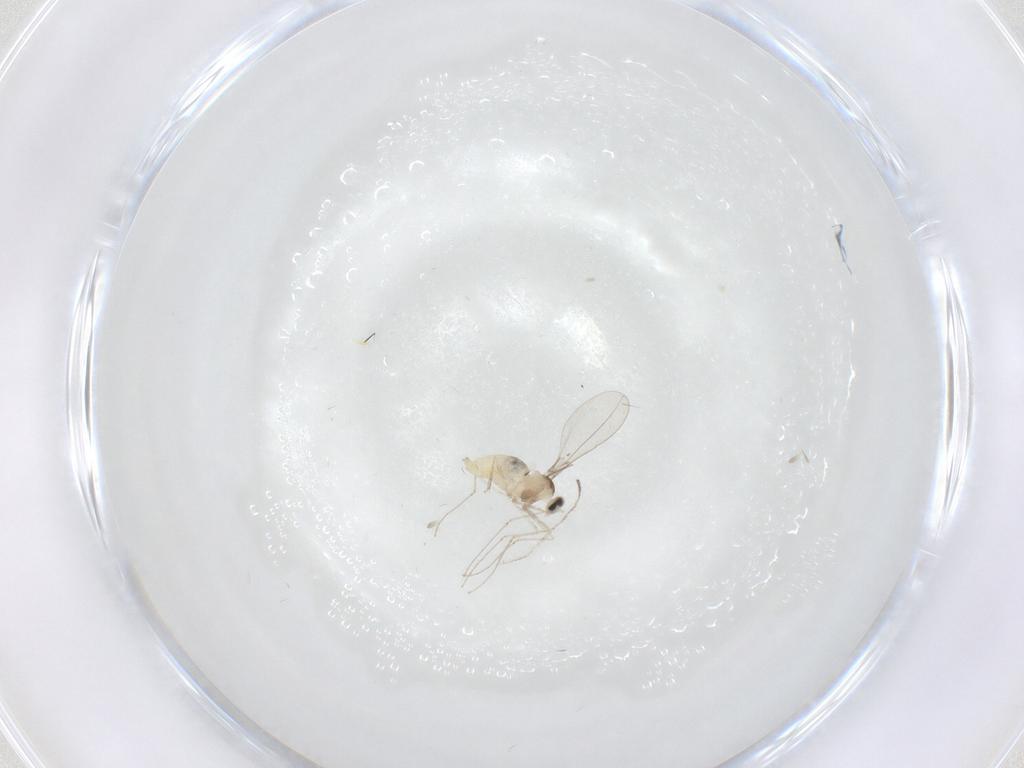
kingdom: Animalia
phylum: Arthropoda
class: Insecta
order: Diptera
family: Cecidomyiidae
